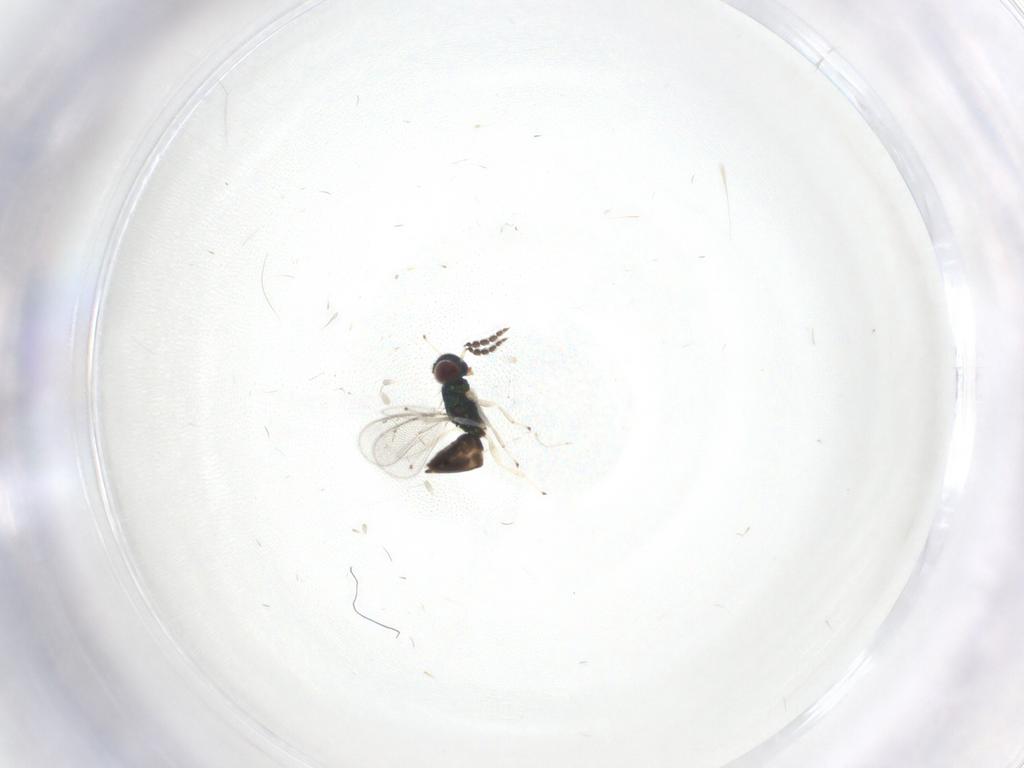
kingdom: Animalia
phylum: Arthropoda
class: Insecta
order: Hymenoptera
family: Eulophidae
